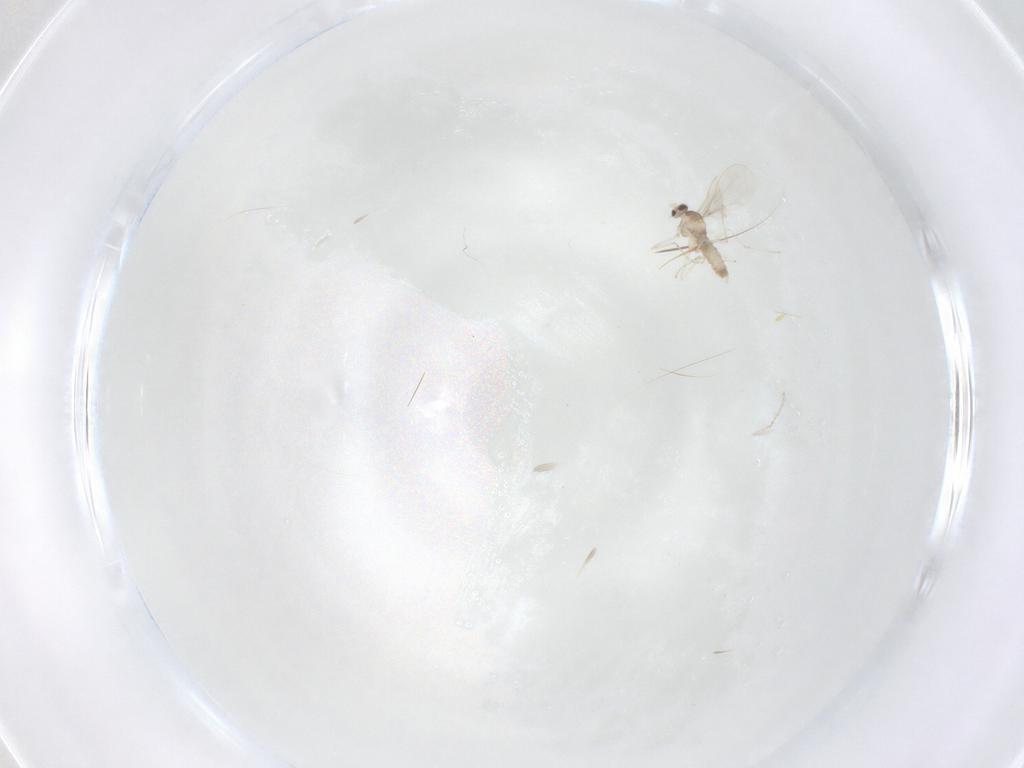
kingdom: Animalia
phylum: Arthropoda
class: Insecta
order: Diptera
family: Cecidomyiidae
